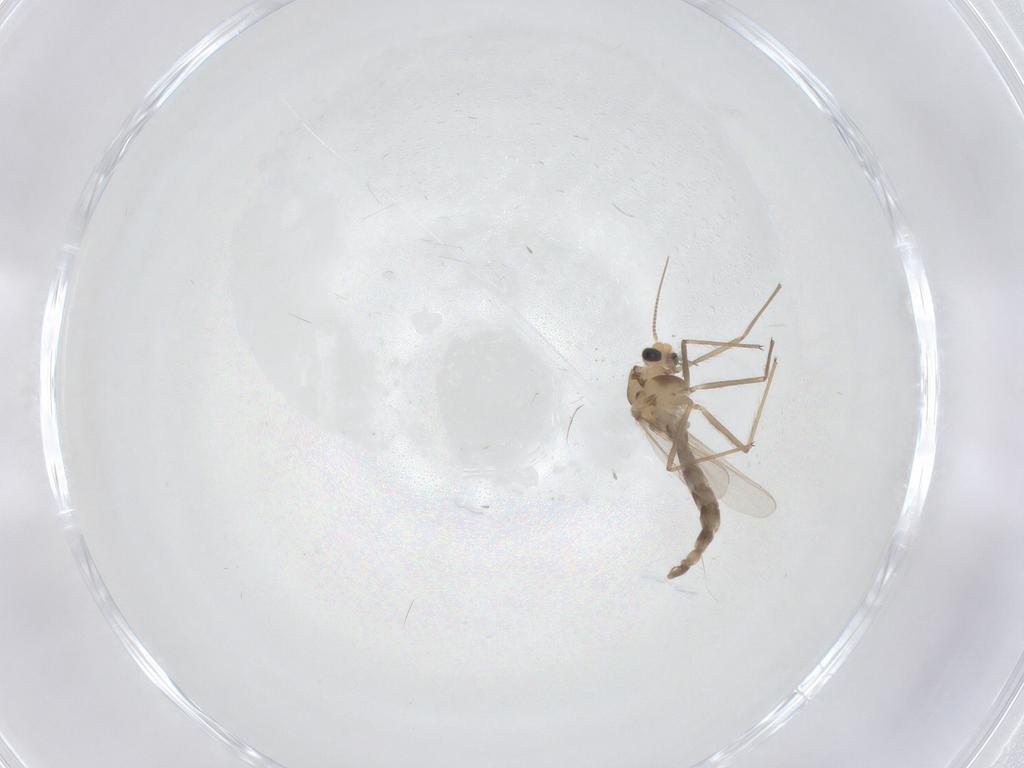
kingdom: Animalia
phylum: Arthropoda
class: Insecta
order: Diptera
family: Chironomidae
